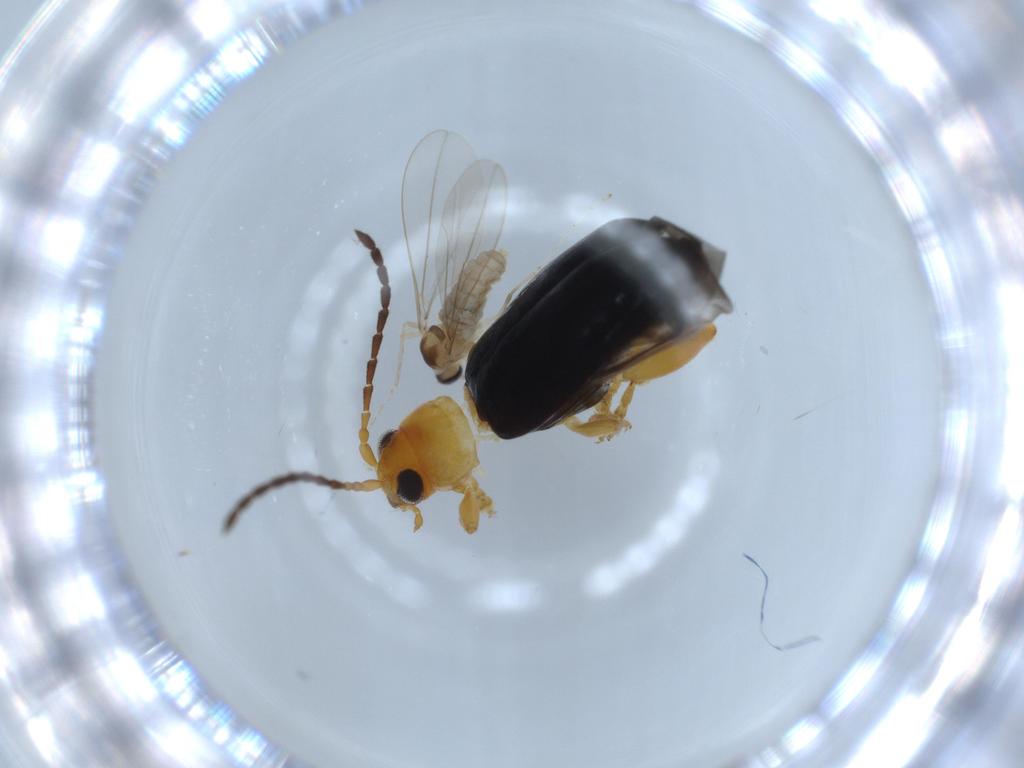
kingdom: Animalia
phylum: Arthropoda
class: Insecta
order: Coleoptera
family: Chrysomelidae
